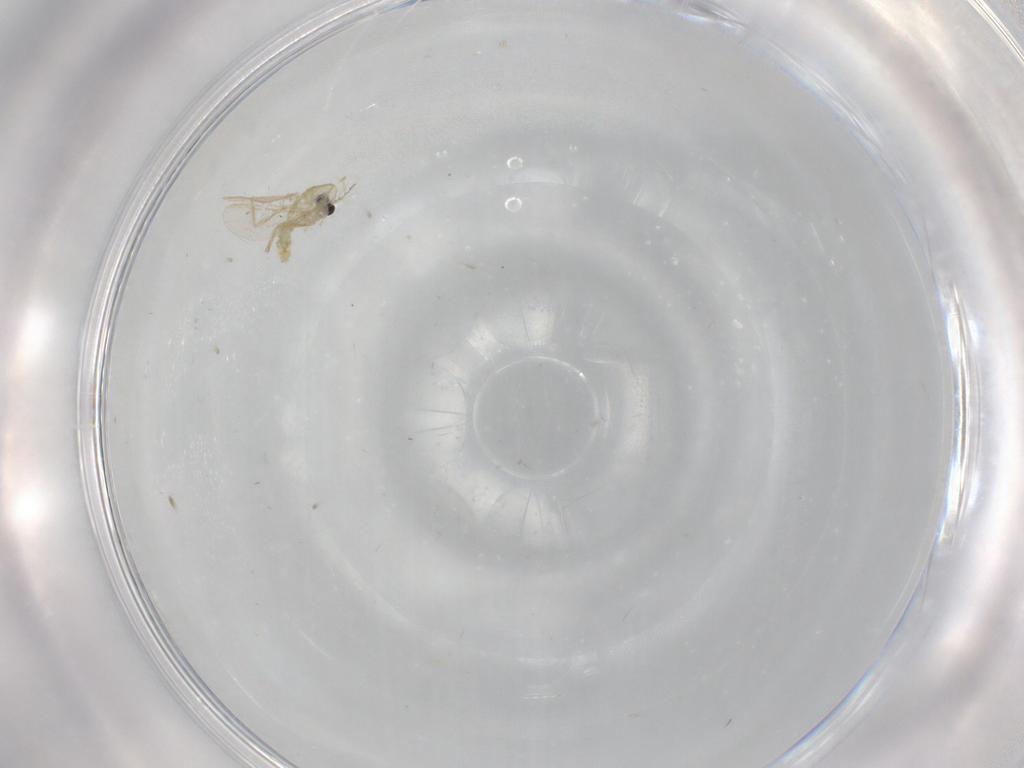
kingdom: Animalia
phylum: Arthropoda
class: Insecta
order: Diptera
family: Chironomidae
